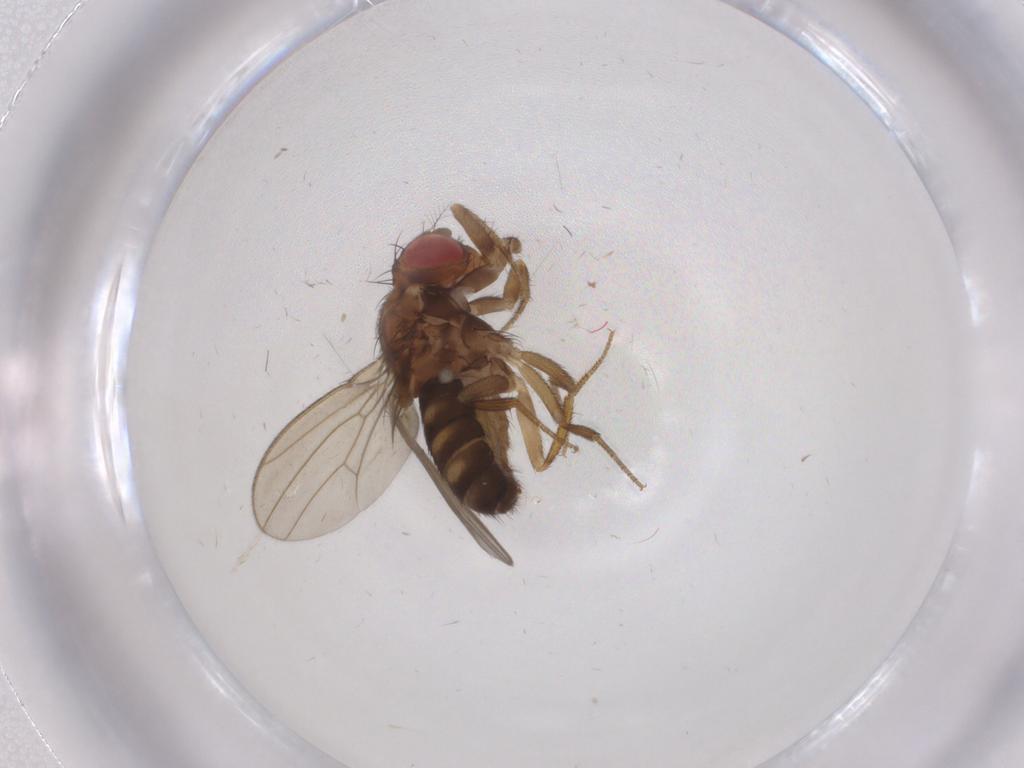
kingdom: Animalia
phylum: Arthropoda
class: Insecta
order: Diptera
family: Drosophilidae
